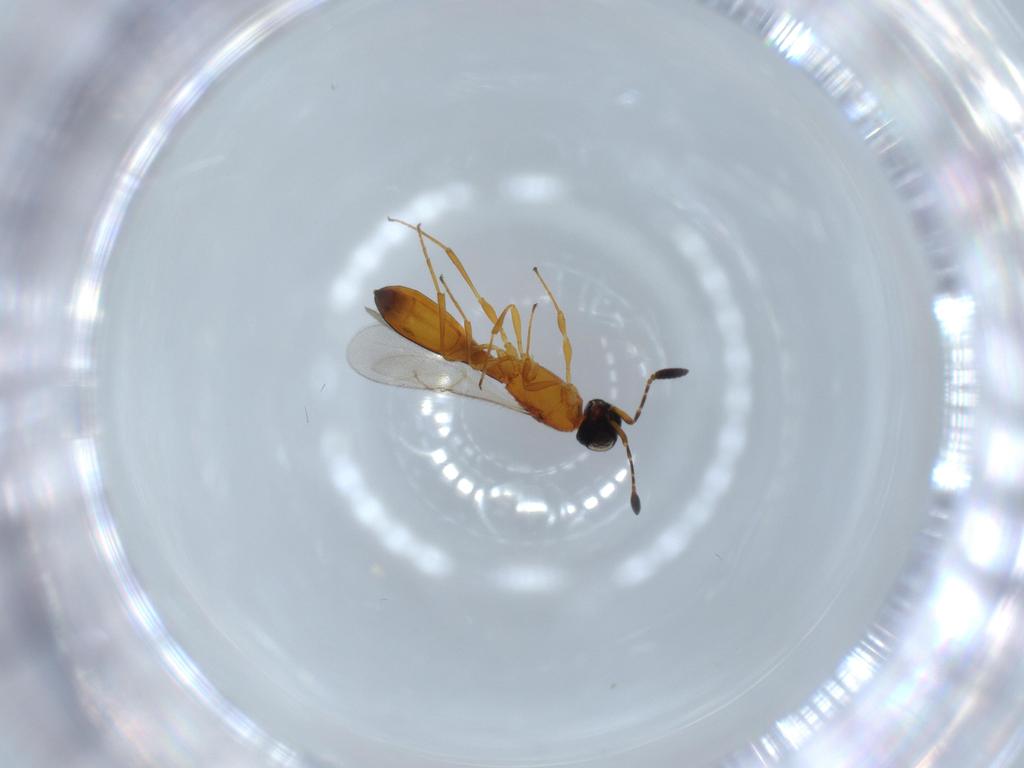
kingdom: Animalia
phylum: Arthropoda
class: Insecta
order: Hymenoptera
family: Scelionidae
